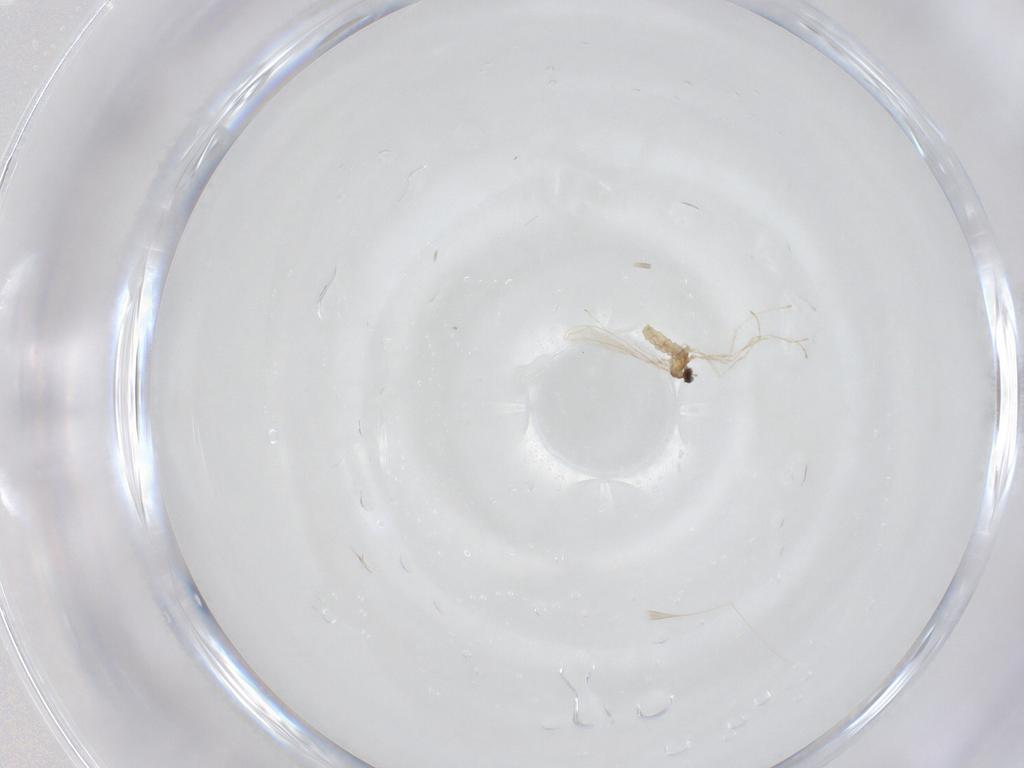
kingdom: Animalia
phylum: Arthropoda
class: Insecta
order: Diptera
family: Cecidomyiidae
